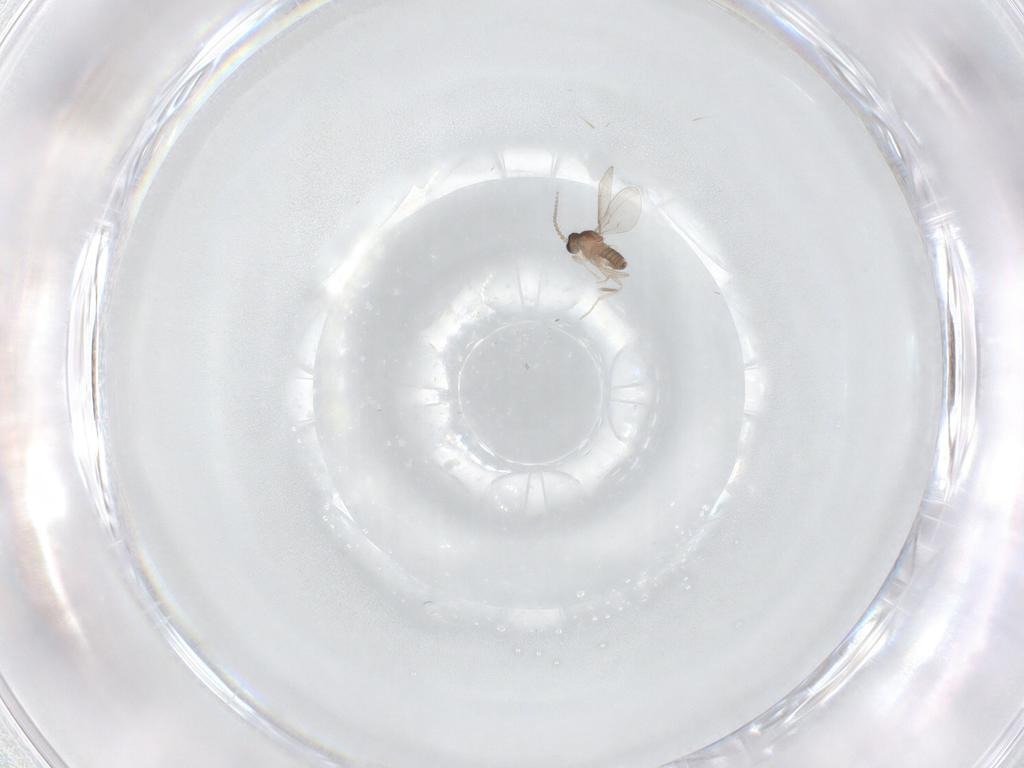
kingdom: Animalia
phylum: Arthropoda
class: Insecta
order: Diptera
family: Cecidomyiidae
